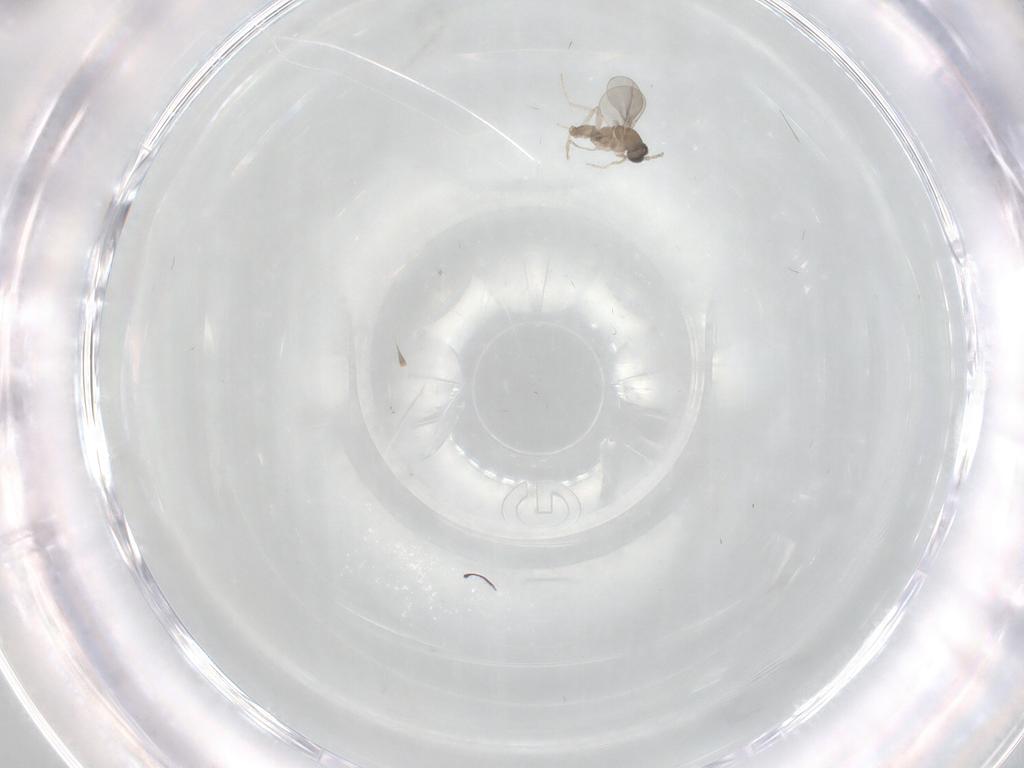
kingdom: Animalia
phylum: Arthropoda
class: Insecta
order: Diptera
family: Cecidomyiidae
